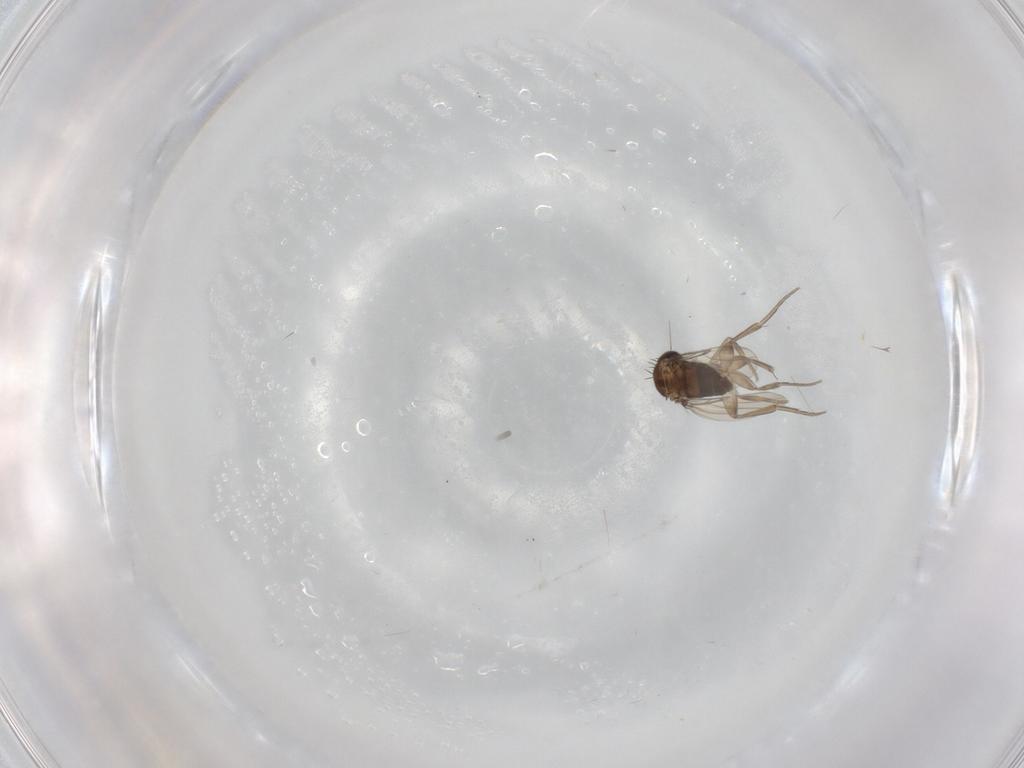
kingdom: Animalia
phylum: Arthropoda
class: Insecta
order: Diptera
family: Phoridae
